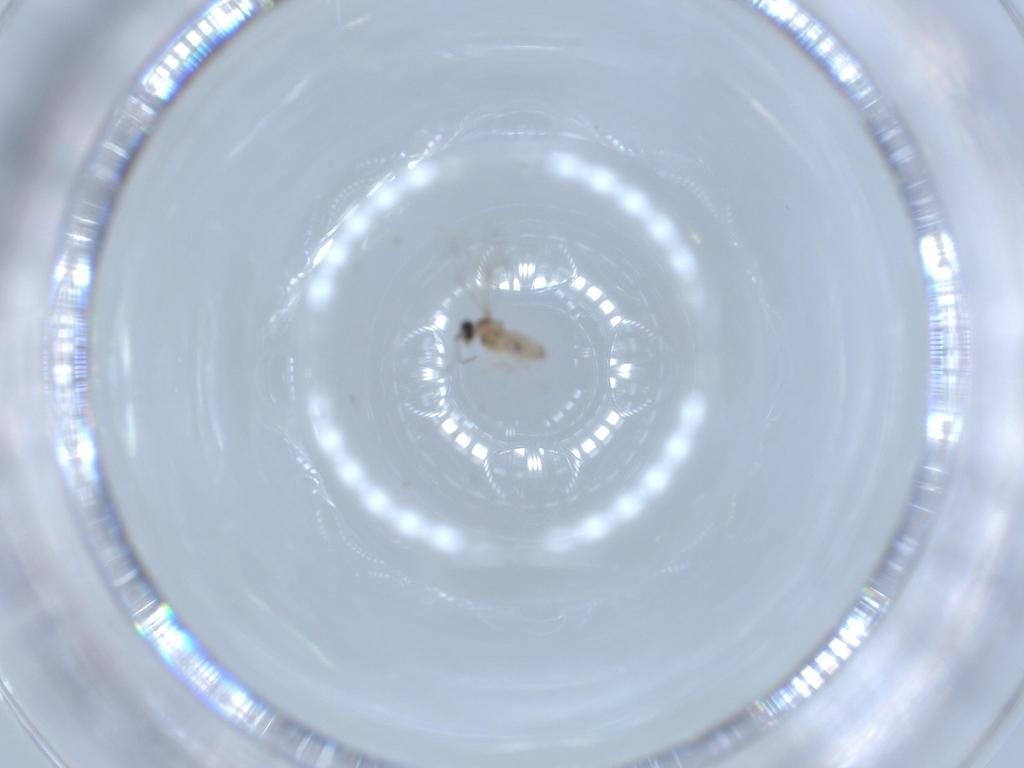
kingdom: Animalia
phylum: Arthropoda
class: Insecta
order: Diptera
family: Cecidomyiidae
